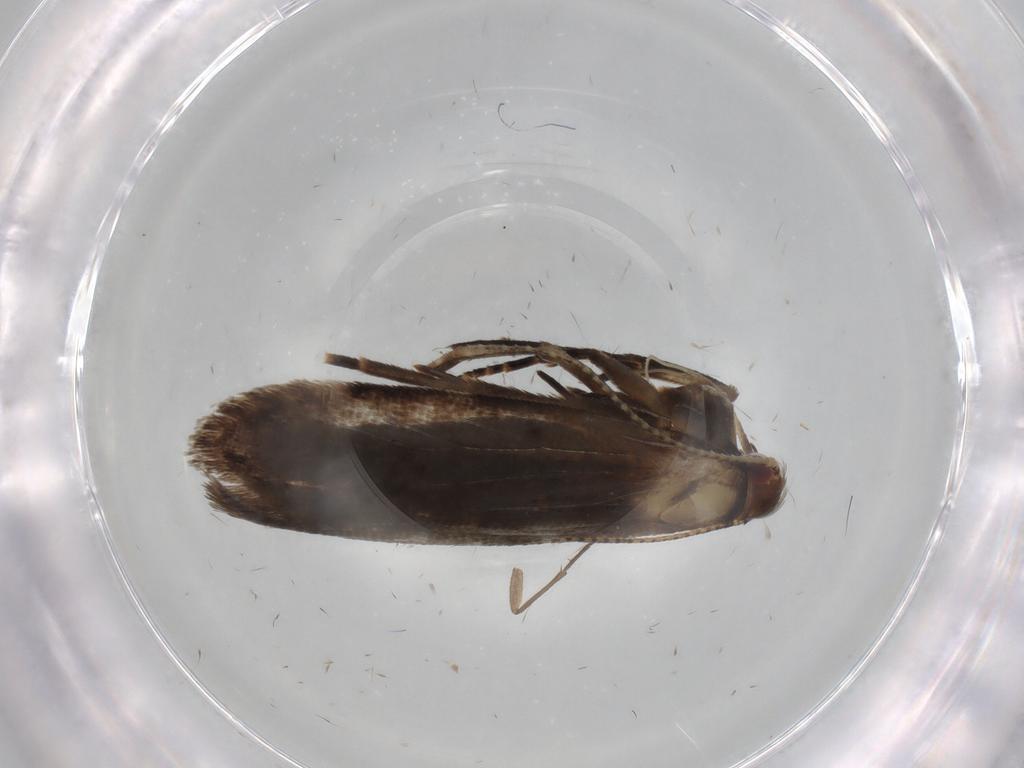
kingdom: Animalia
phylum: Arthropoda
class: Insecta
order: Lepidoptera
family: Gelechiidae
